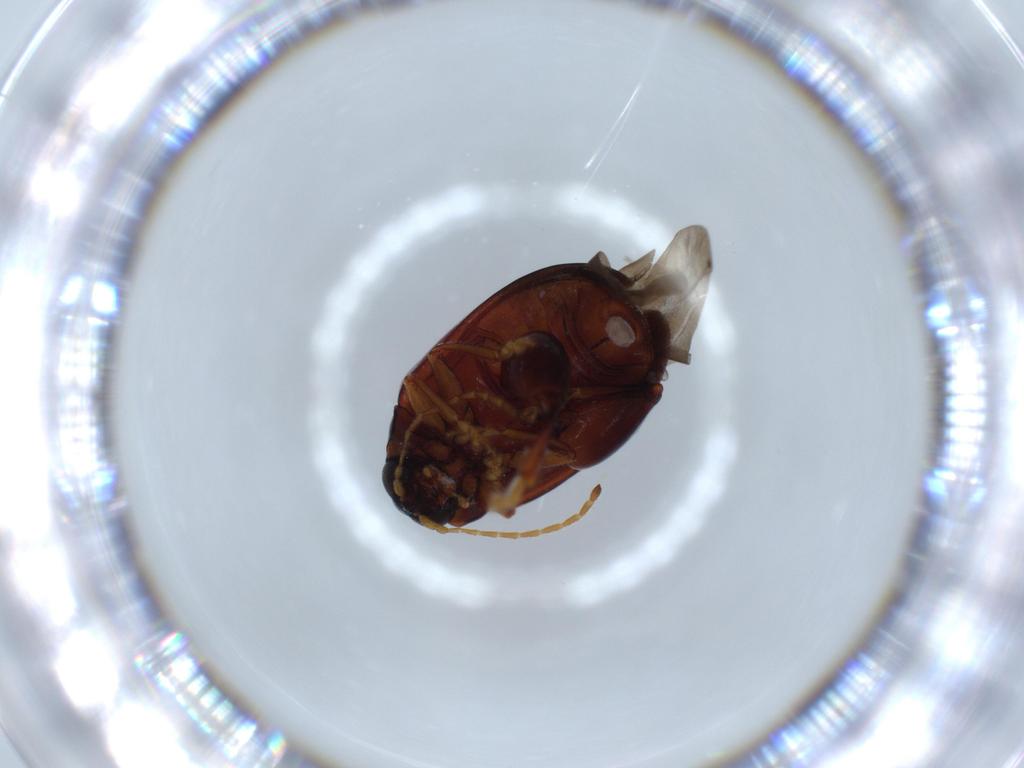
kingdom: Animalia
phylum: Arthropoda
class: Insecta
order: Coleoptera
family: Chrysomelidae
